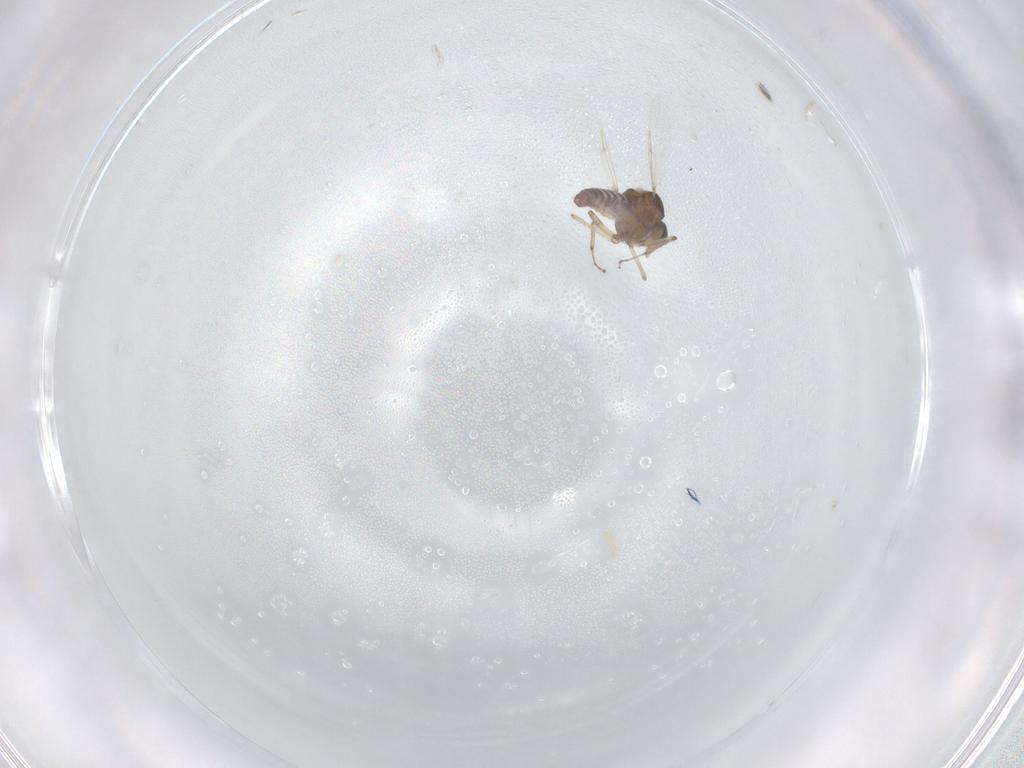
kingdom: Animalia
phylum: Arthropoda
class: Insecta
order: Diptera
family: Ceratopogonidae
